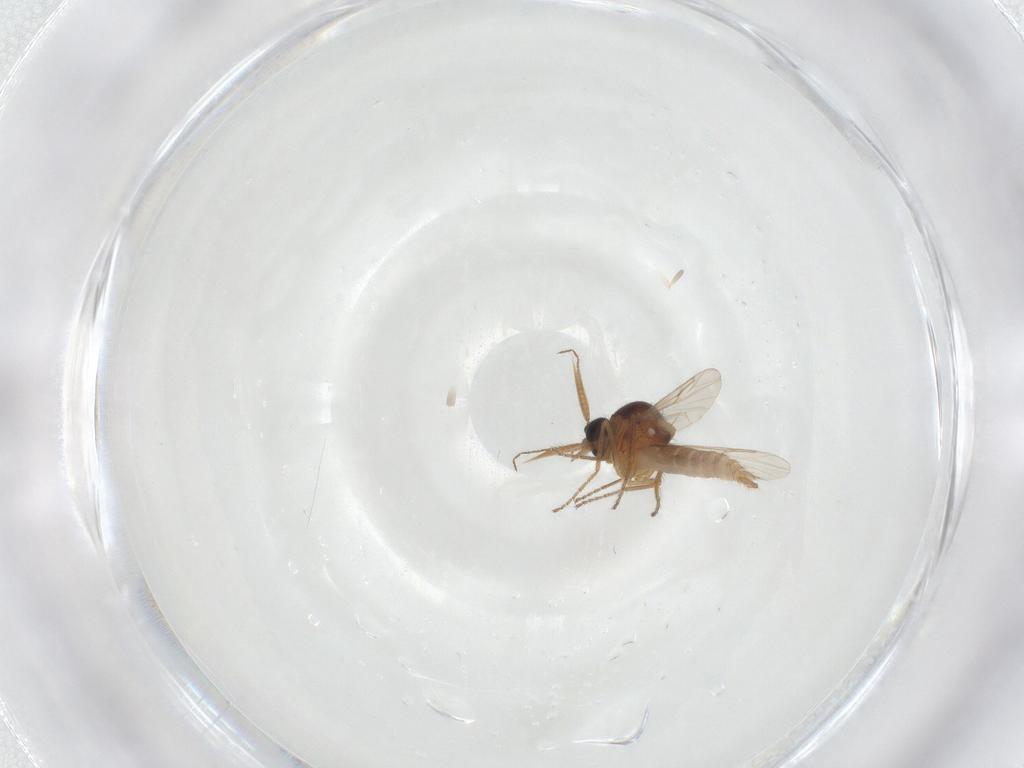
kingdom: Animalia
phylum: Arthropoda
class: Insecta
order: Diptera
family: Ceratopogonidae
